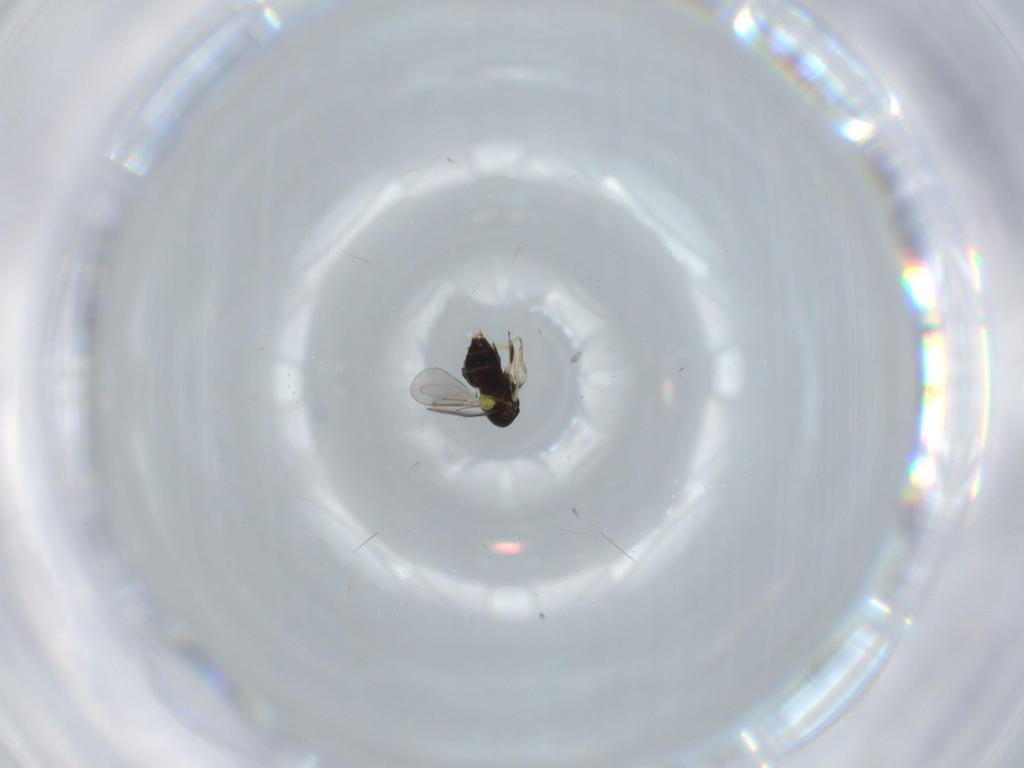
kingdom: Animalia
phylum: Arthropoda
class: Insecta
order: Hymenoptera
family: Aphelinidae
